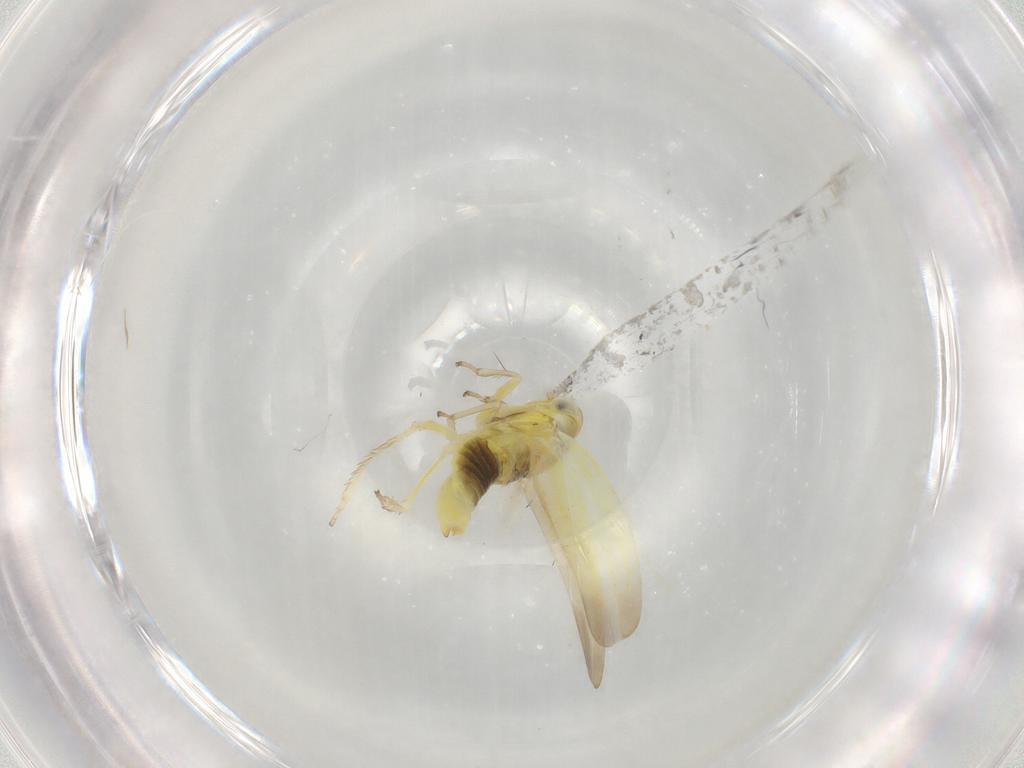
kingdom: Animalia
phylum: Arthropoda
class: Insecta
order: Hemiptera
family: Cicadellidae
